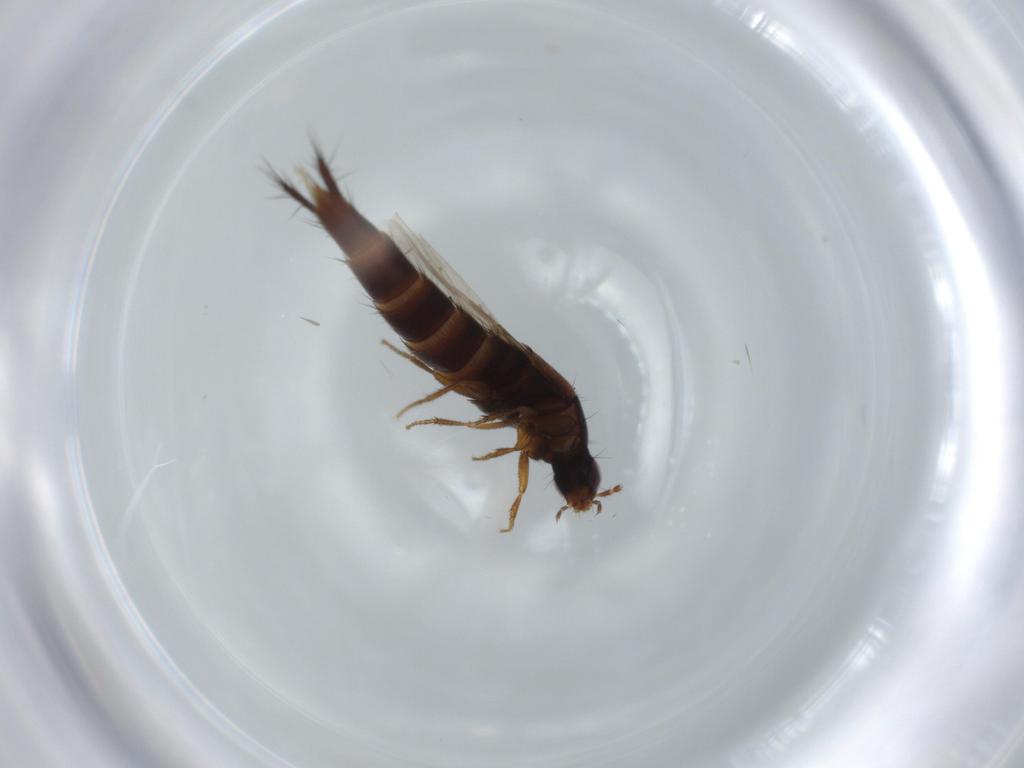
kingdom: Animalia
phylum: Arthropoda
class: Insecta
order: Coleoptera
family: Staphylinidae
